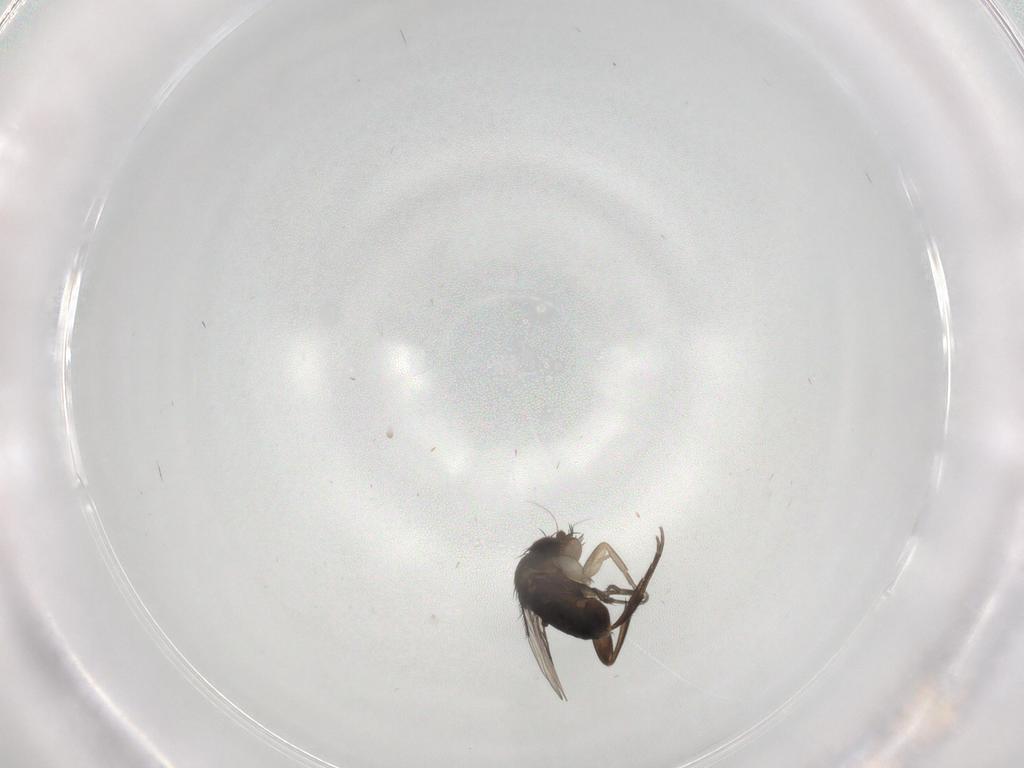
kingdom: Animalia
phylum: Arthropoda
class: Insecta
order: Diptera
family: Phoridae
